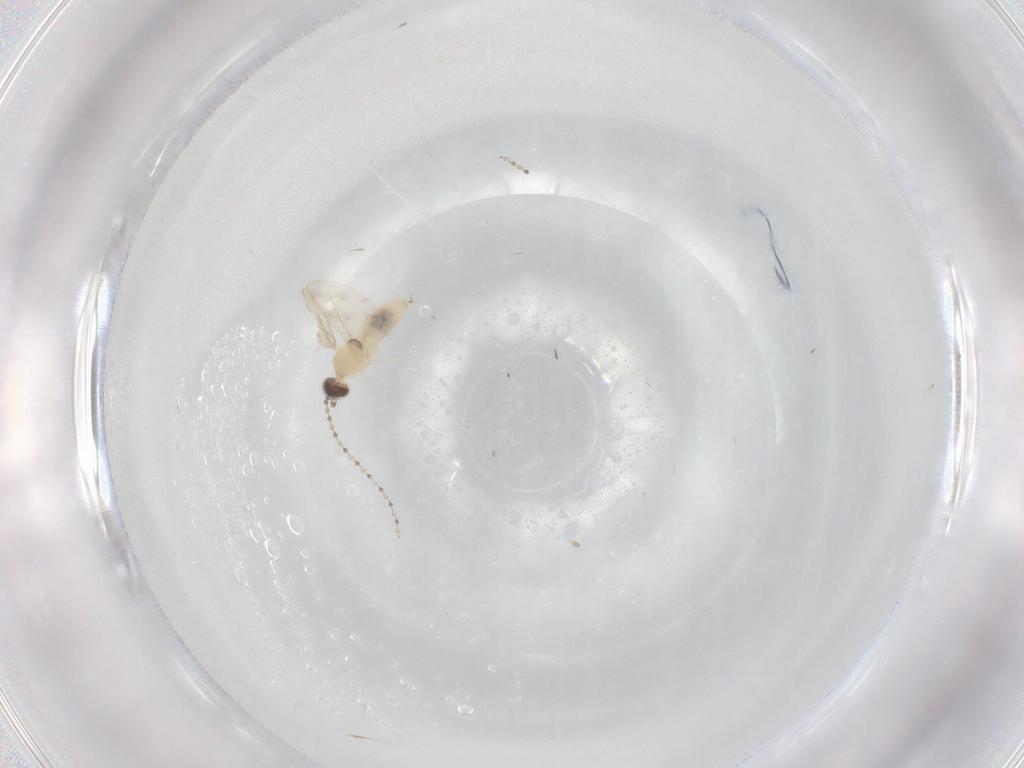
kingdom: Animalia
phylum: Arthropoda
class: Insecta
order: Diptera
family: Cecidomyiidae
